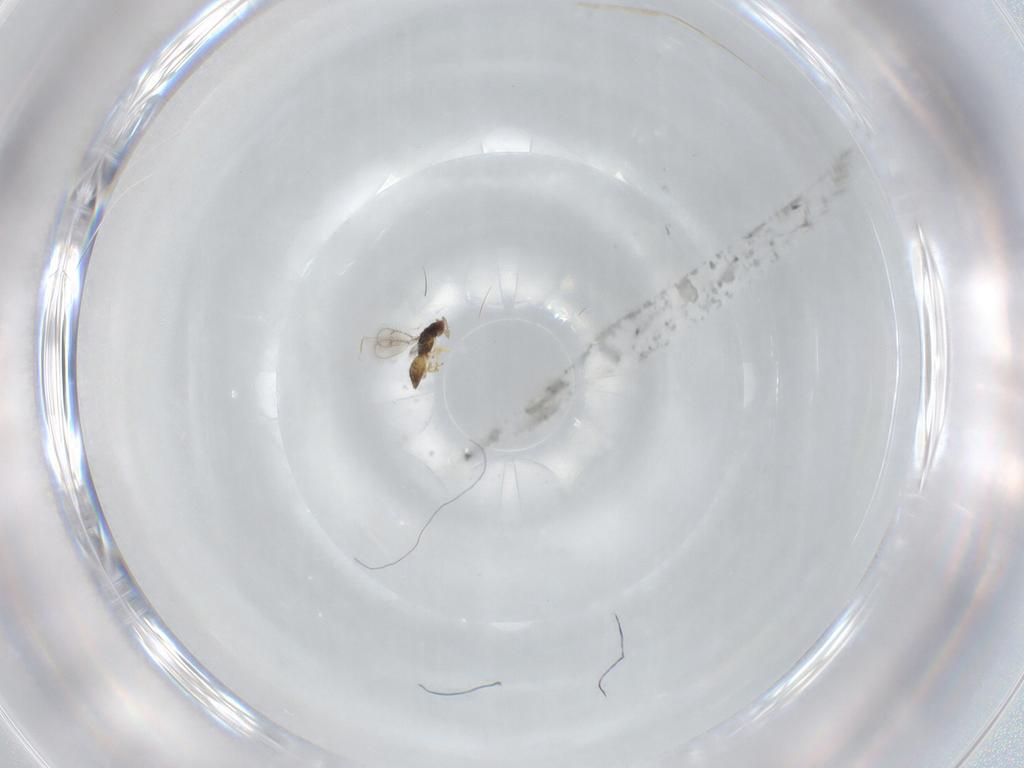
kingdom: Animalia
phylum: Arthropoda
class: Insecta
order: Hymenoptera
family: Eulophidae
